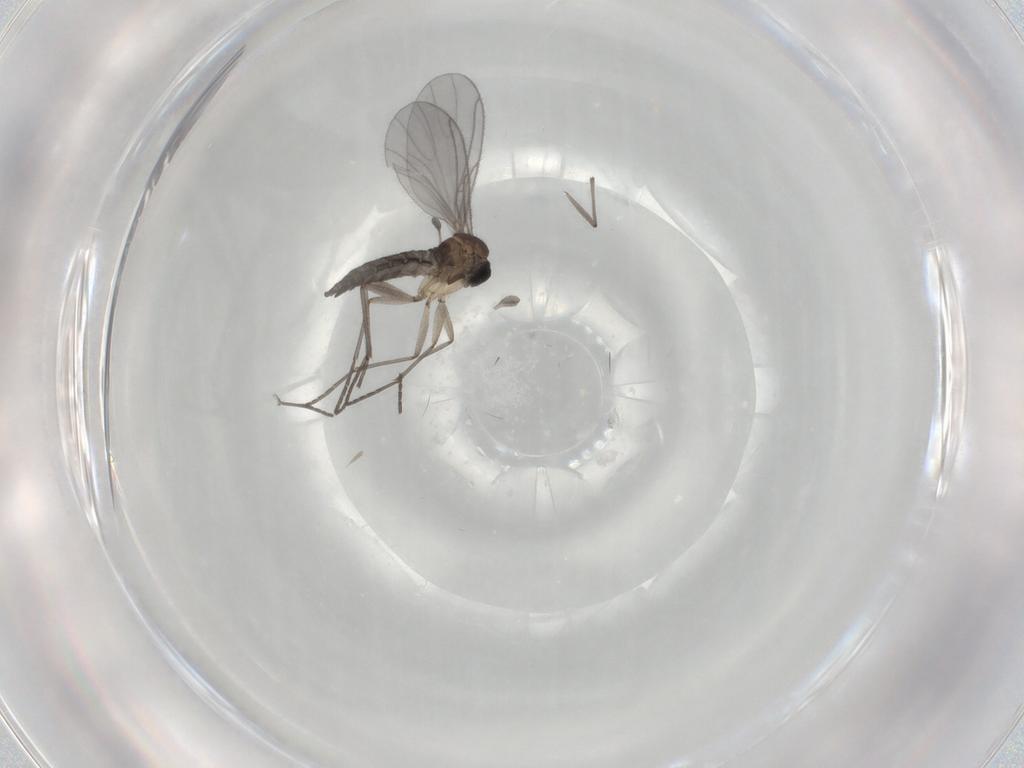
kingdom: Animalia
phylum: Arthropoda
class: Insecta
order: Diptera
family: Sciaridae
